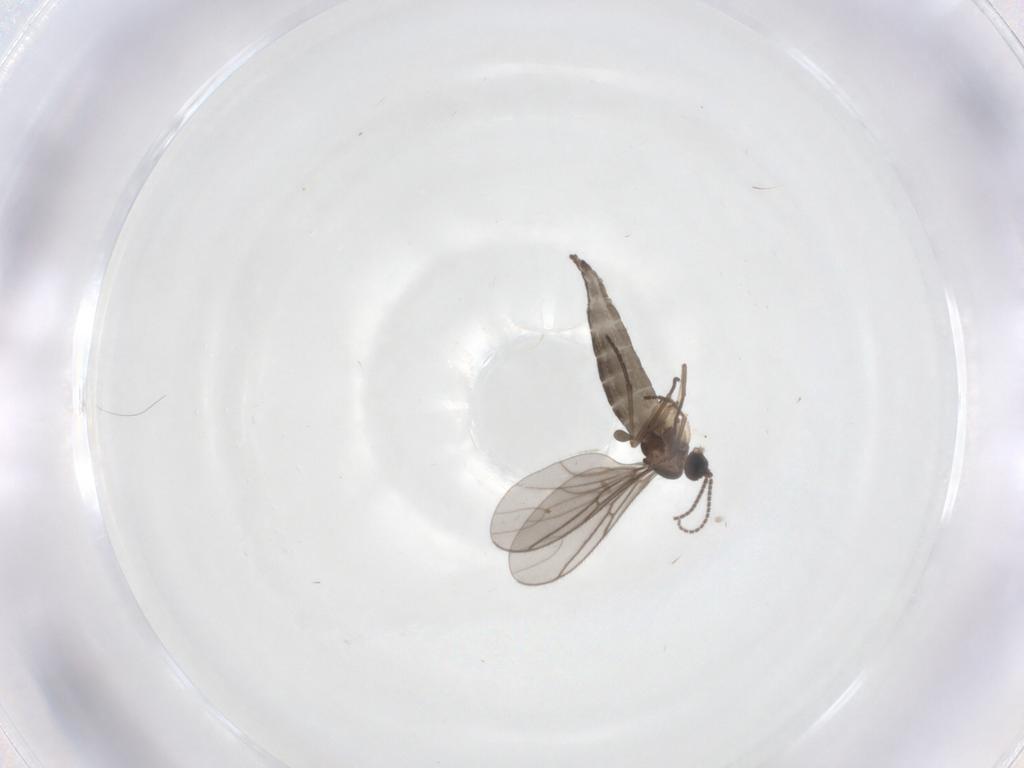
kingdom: Animalia
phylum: Arthropoda
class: Insecta
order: Diptera
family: Sciaridae
